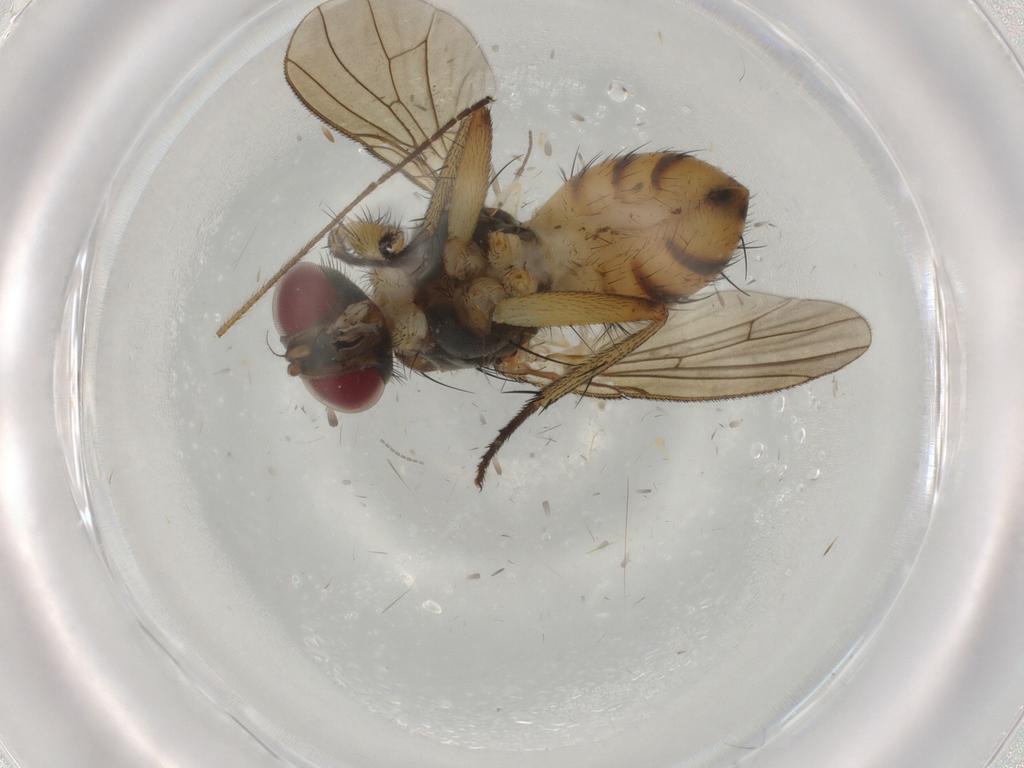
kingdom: Animalia
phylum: Arthropoda
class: Insecta
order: Diptera
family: Muscidae
